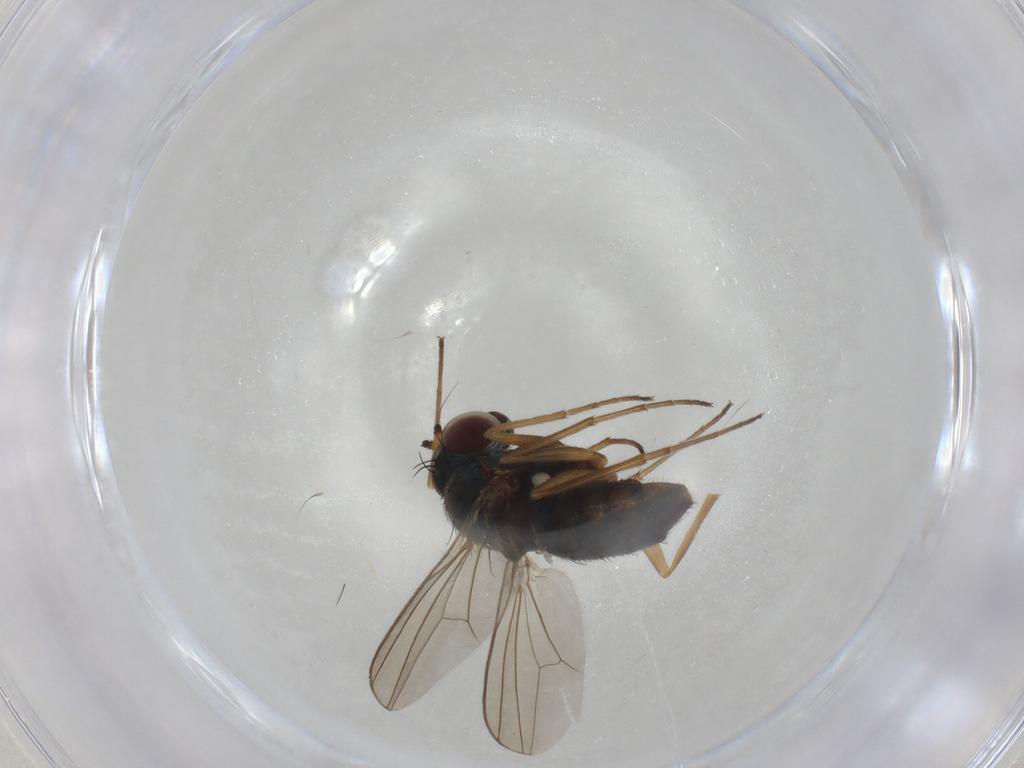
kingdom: Animalia
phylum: Arthropoda
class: Insecta
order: Diptera
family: Dolichopodidae
